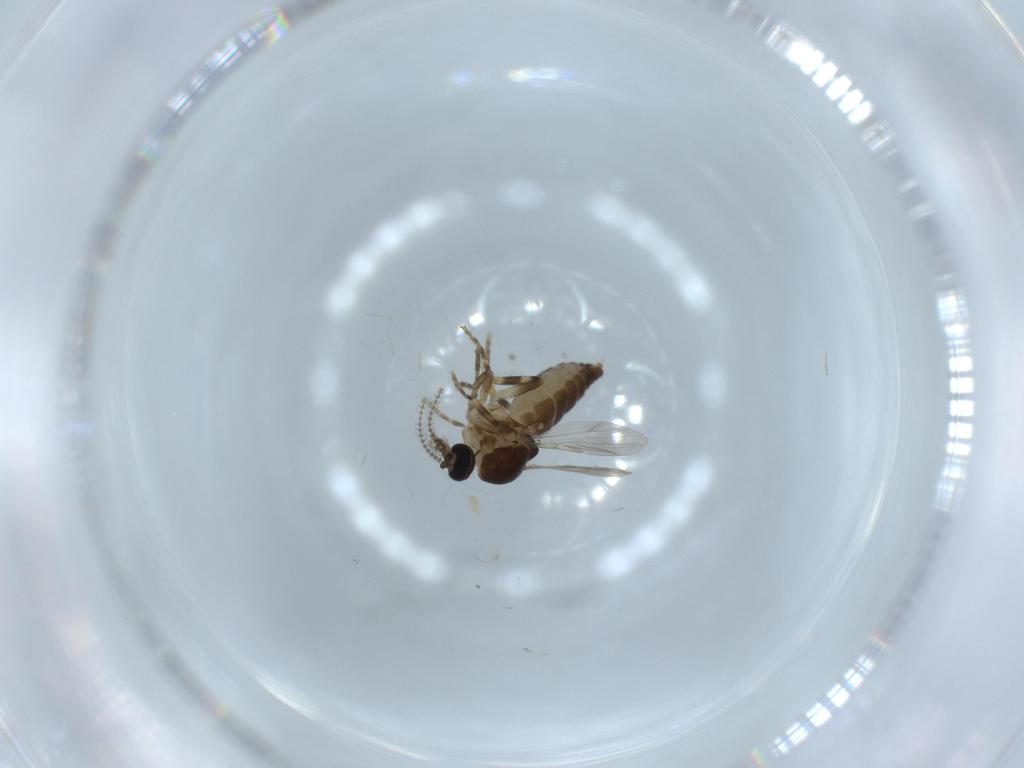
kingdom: Animalia
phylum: Arthropoda
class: Insecta
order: Diptera
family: Ceratopogonidae
